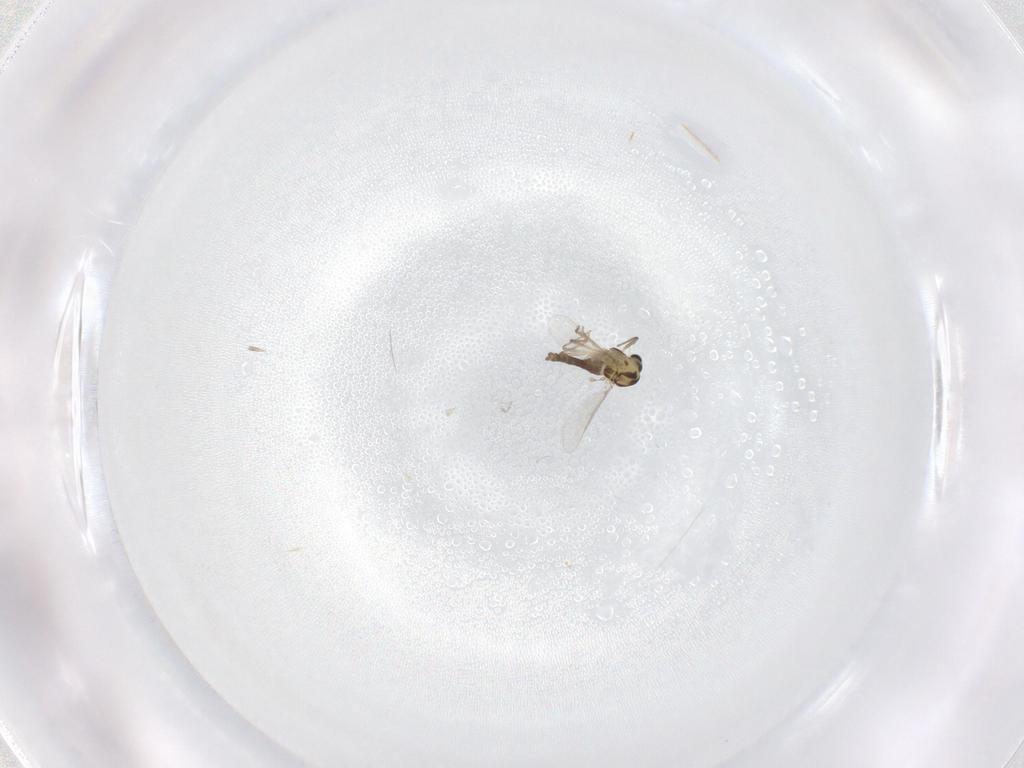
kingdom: Animalia
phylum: Arthropoda
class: Insecta
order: Diptera
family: Chironomidae
